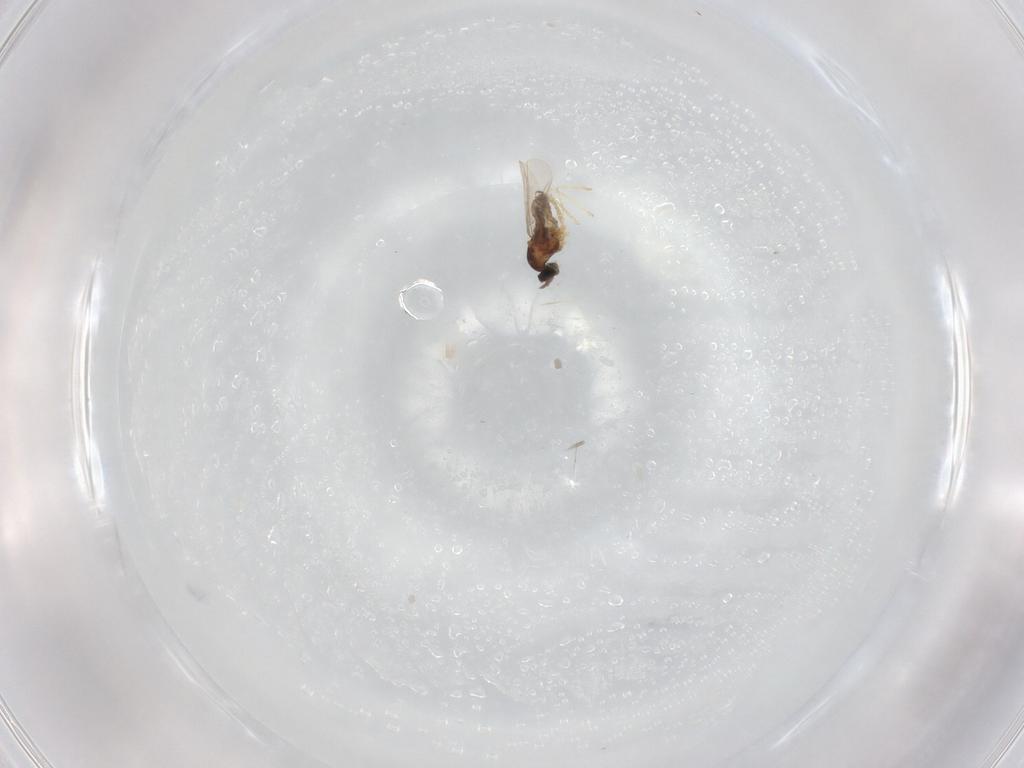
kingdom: Animalia
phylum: Arthropoda
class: Insecta
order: Diptera
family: Cecidomyiidae
